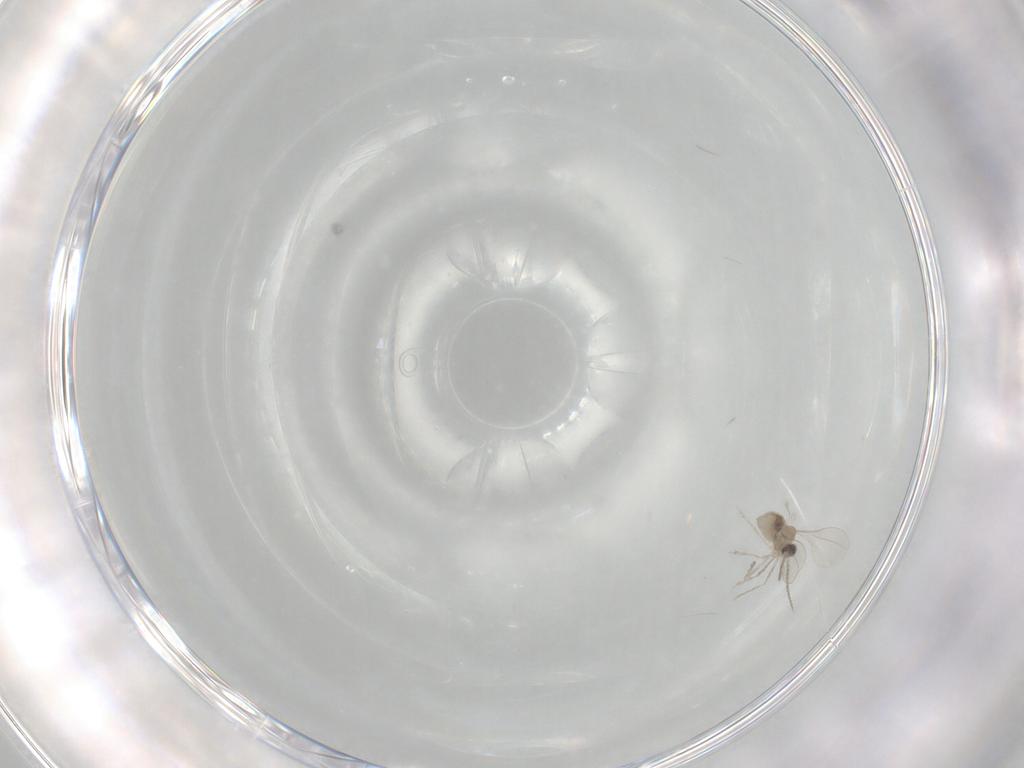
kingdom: Animalia
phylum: Arthropoda
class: Insecta
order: Diptera
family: Cecidomyiidae
